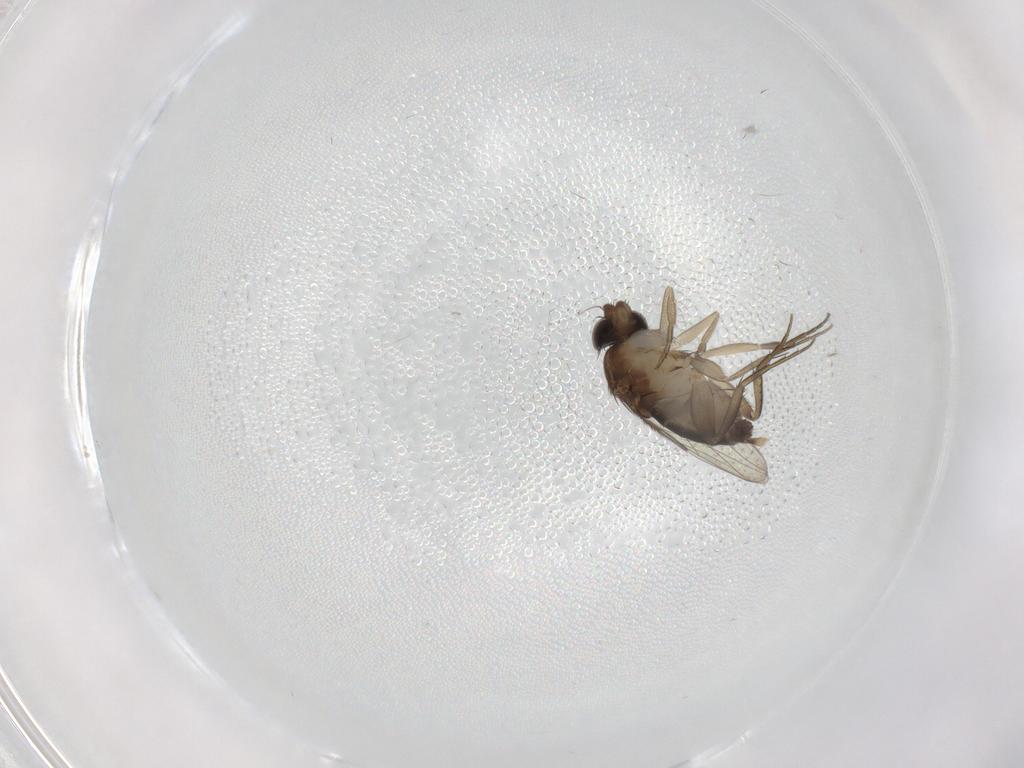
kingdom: Animalia
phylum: Arthropoda
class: Insecta
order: Diptera
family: Phoridae
